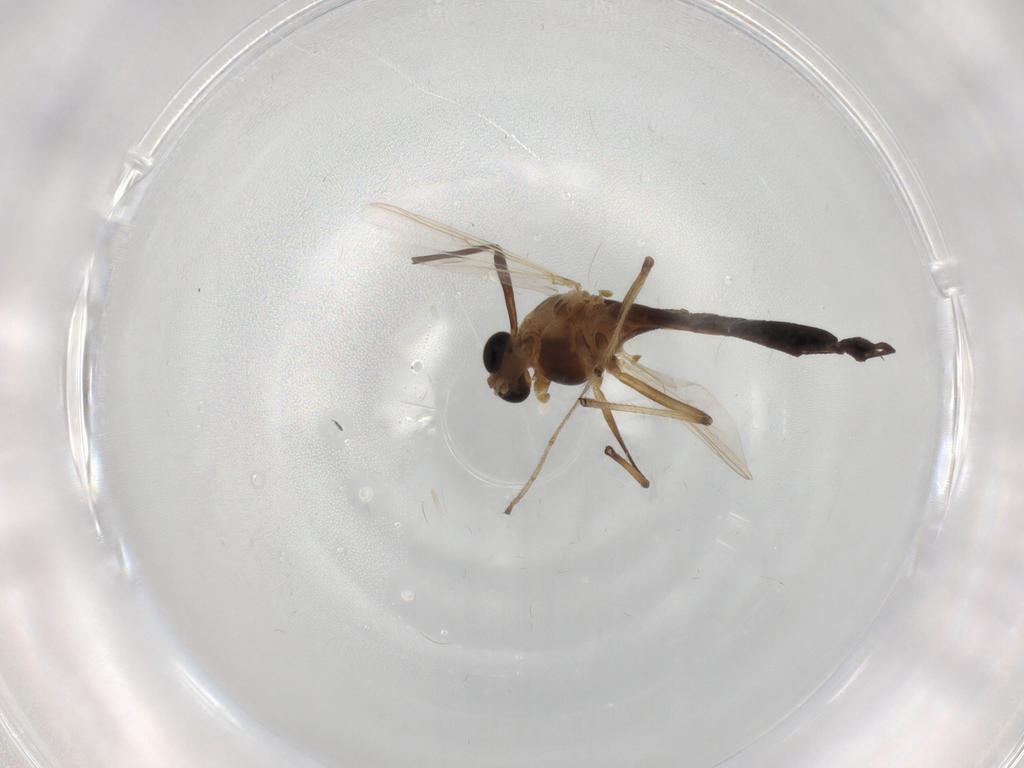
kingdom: Animalia
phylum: Arthropoda
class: Insecta
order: Diptera
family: Chironomidae
